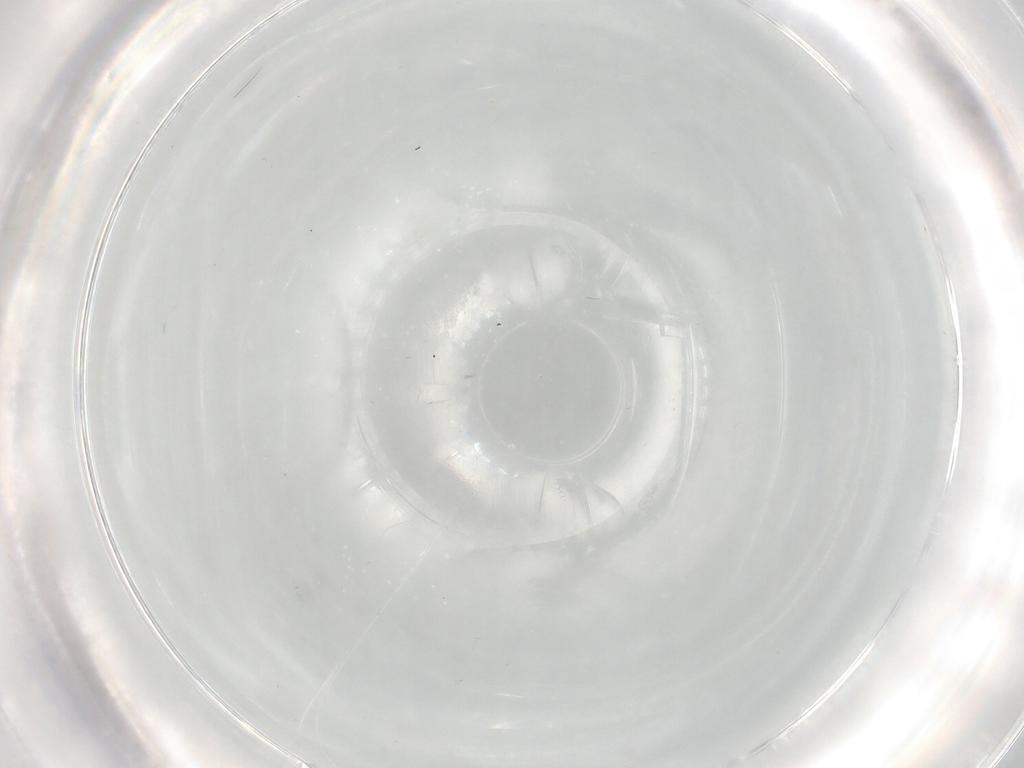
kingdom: Animalia
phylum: Arthropoda
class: Insecta
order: Diptera
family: Chironomidae
